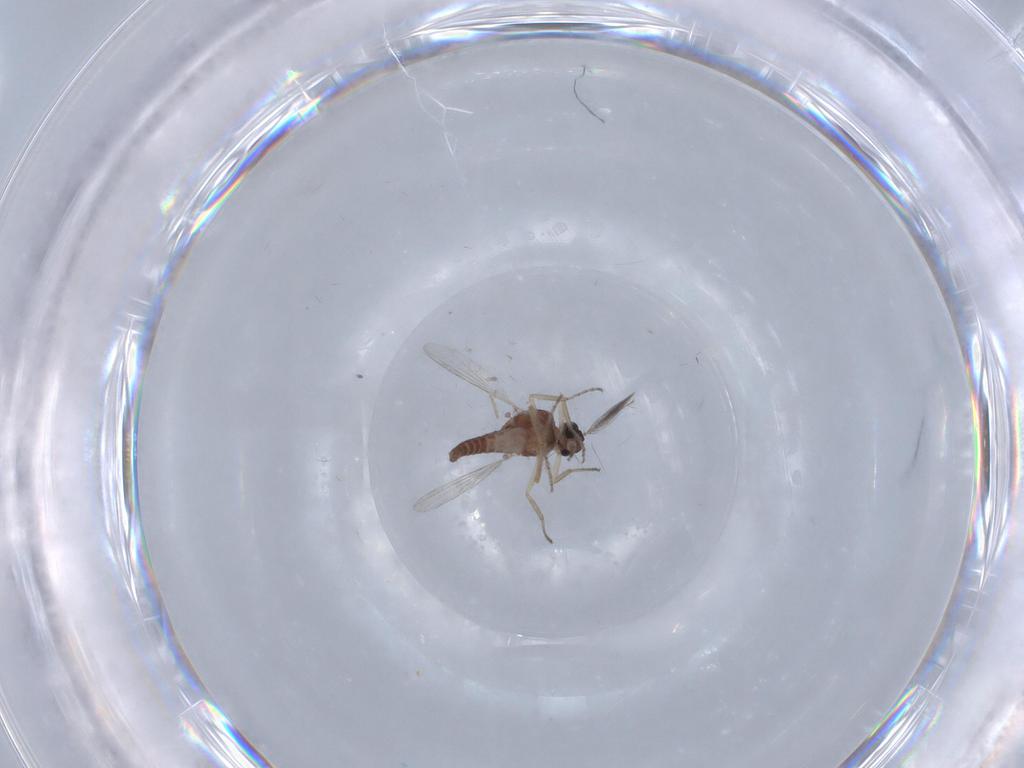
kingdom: Animalia
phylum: Arthropoda
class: Insecta
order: Diptera
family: Ceratopogonidae
